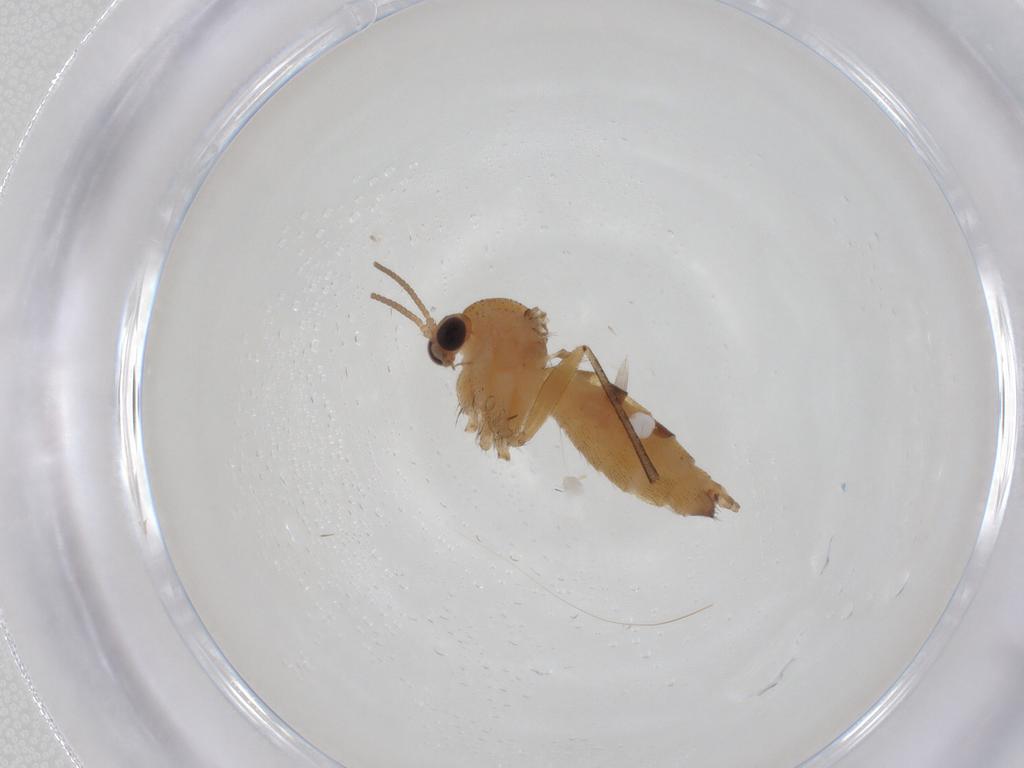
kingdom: Animalia
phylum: Arthropoda
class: Insecta
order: Diptera
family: Mycetophilidae
